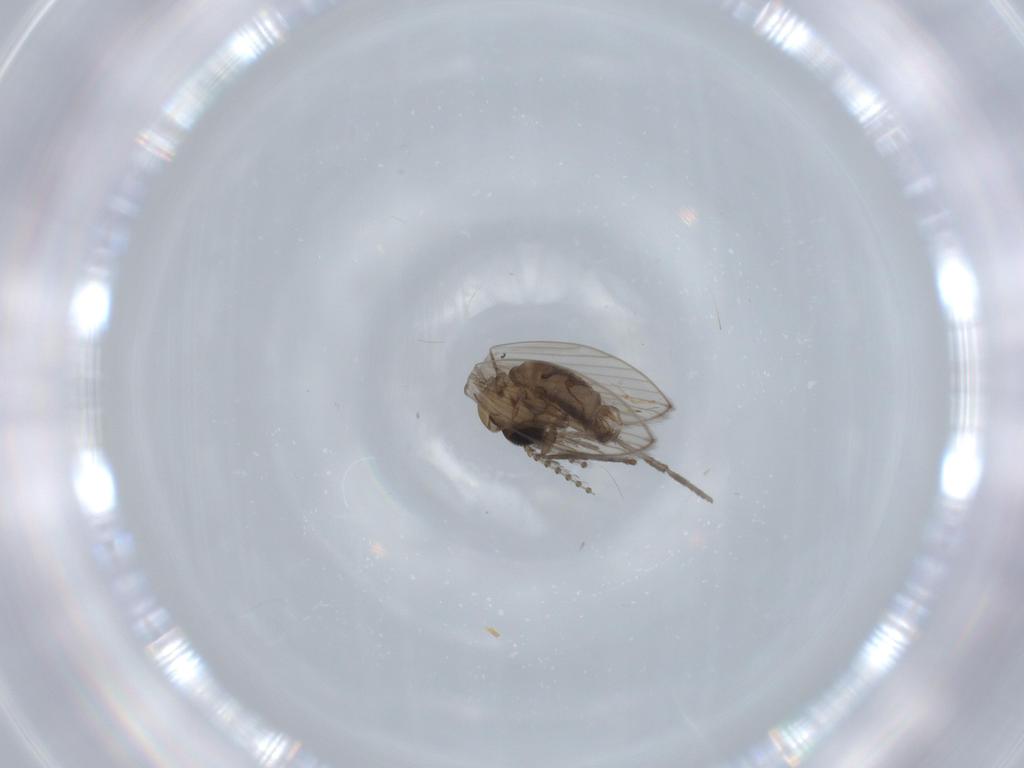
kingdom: Animalia
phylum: Arthropoda
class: Insecta
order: Diptera
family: Psychodidae
